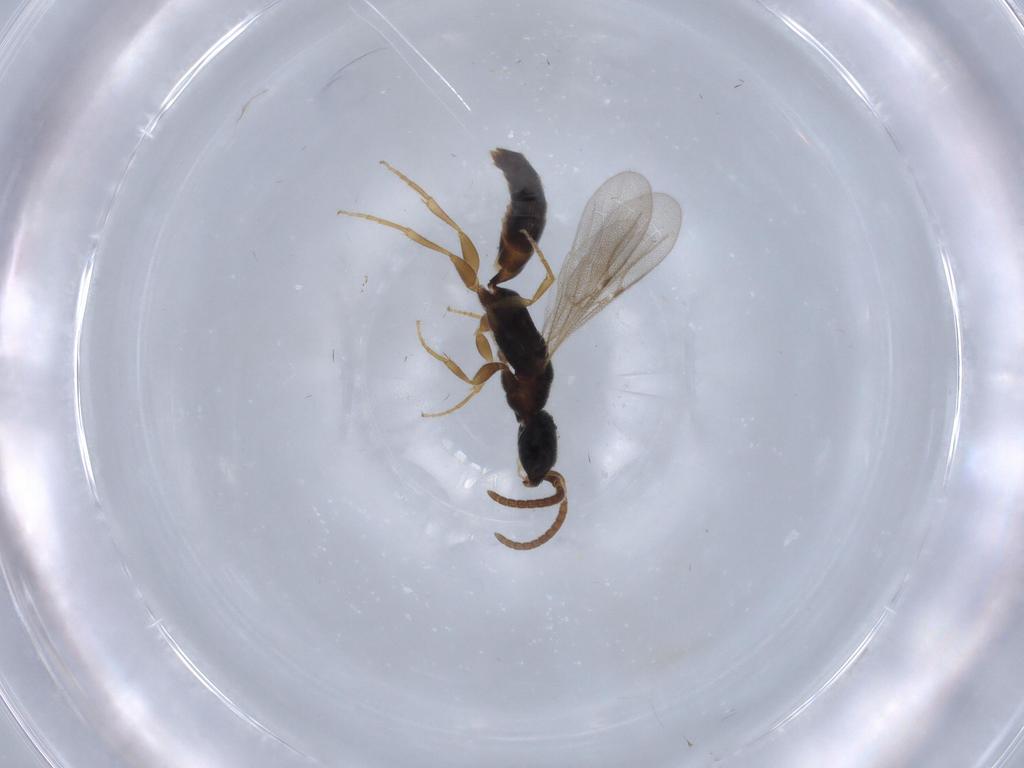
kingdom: Animalia
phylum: Arthropoda
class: Insecta
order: Hymenoptera
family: Bethylidae
